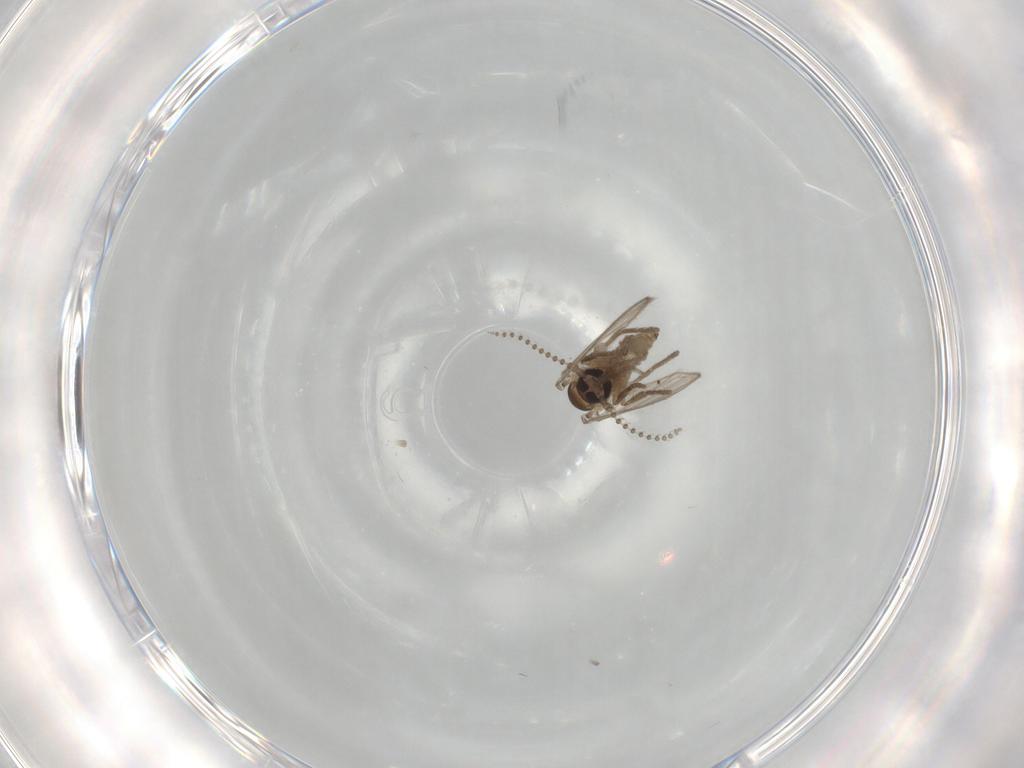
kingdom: Animalia
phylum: Arthropoda
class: Insecta
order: Diptera
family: Psychodidae
